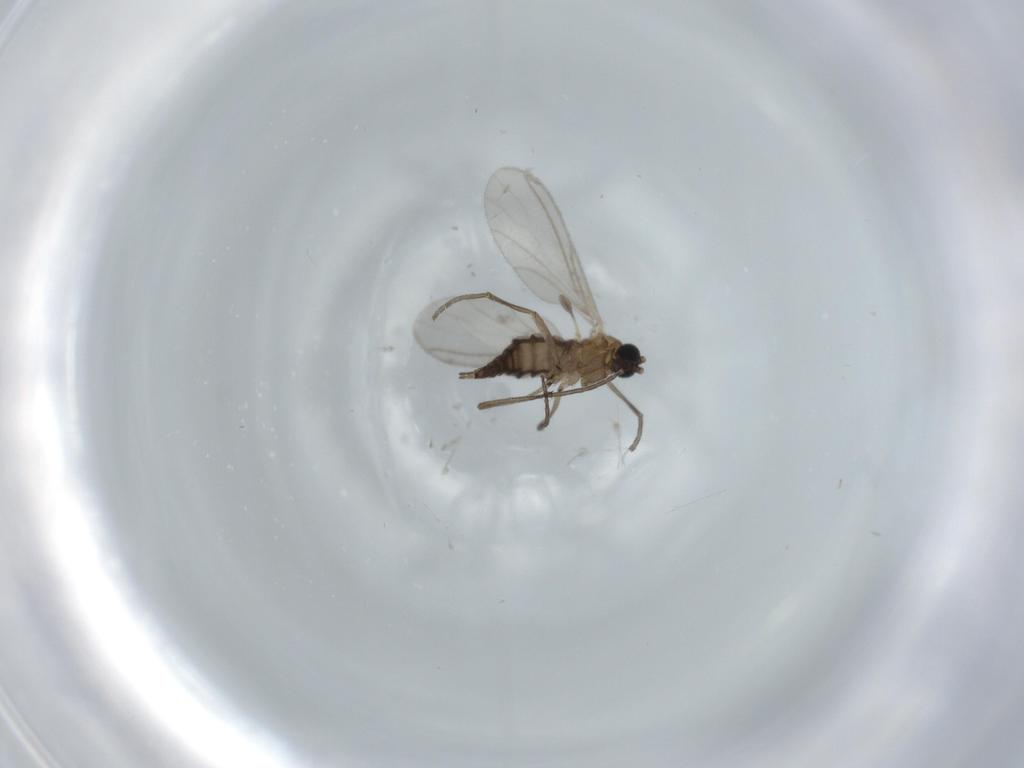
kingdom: Animalia
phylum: Arthropoda
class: Insecta
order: Diptera
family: Sciaridae
